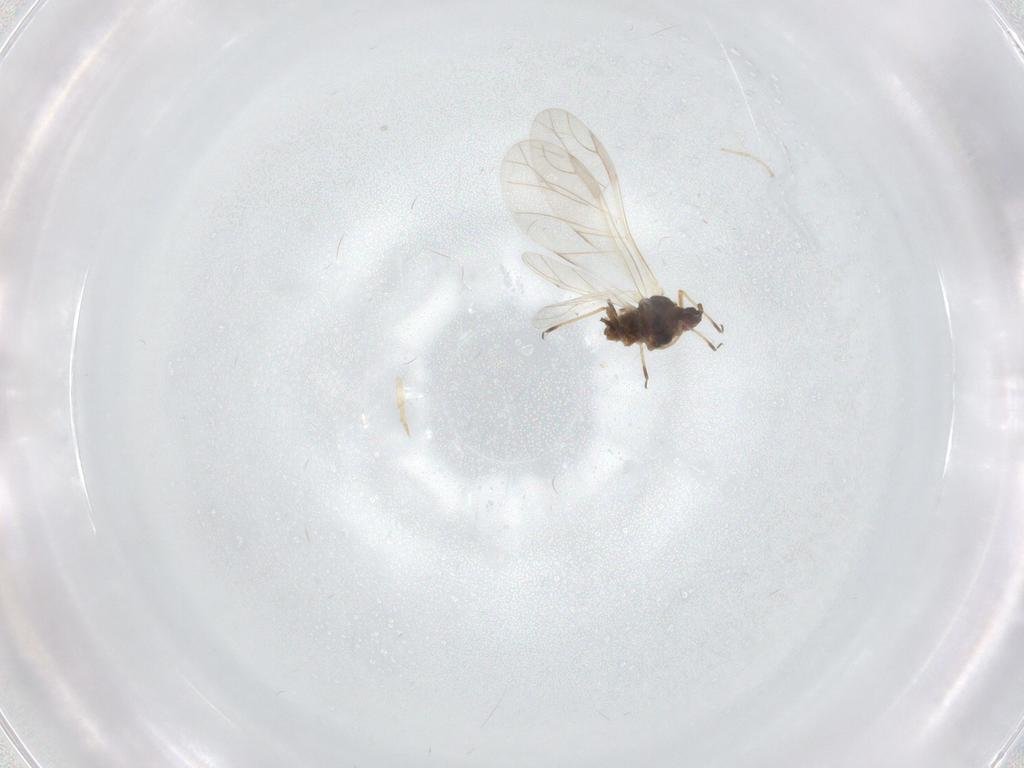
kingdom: Animalia
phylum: Arthropoda
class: Insecta
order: Hemiptera
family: Aphididae
